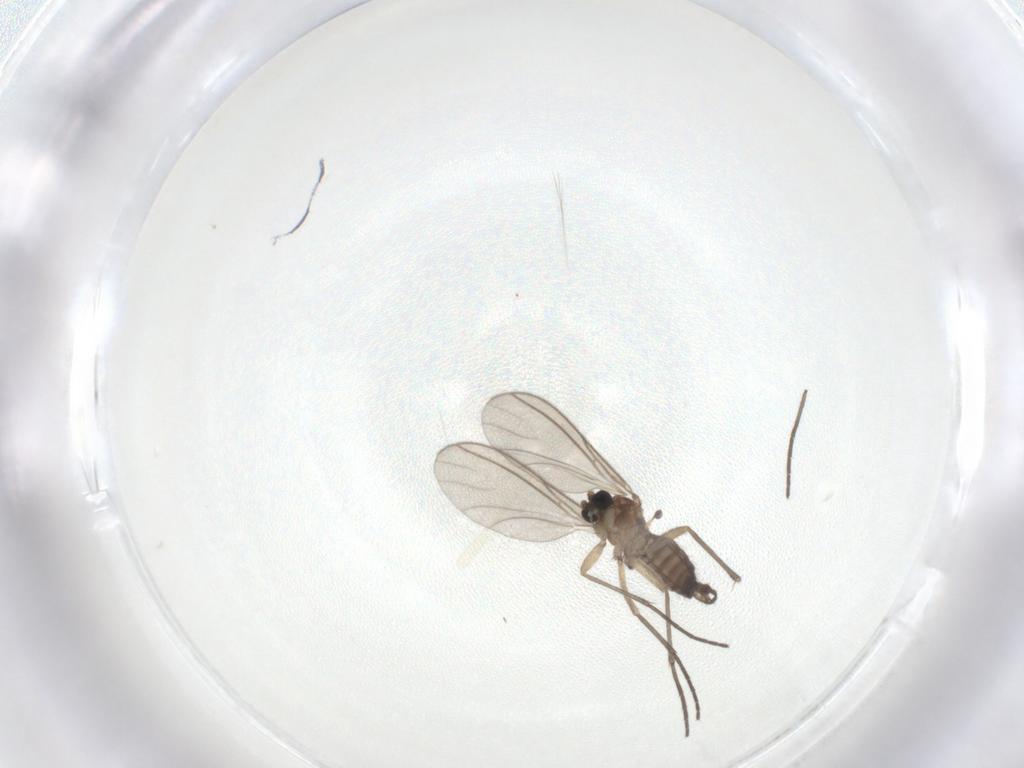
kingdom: Animalia
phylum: Arthropoda
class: Insecta
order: Diptera
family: Sciaridae
